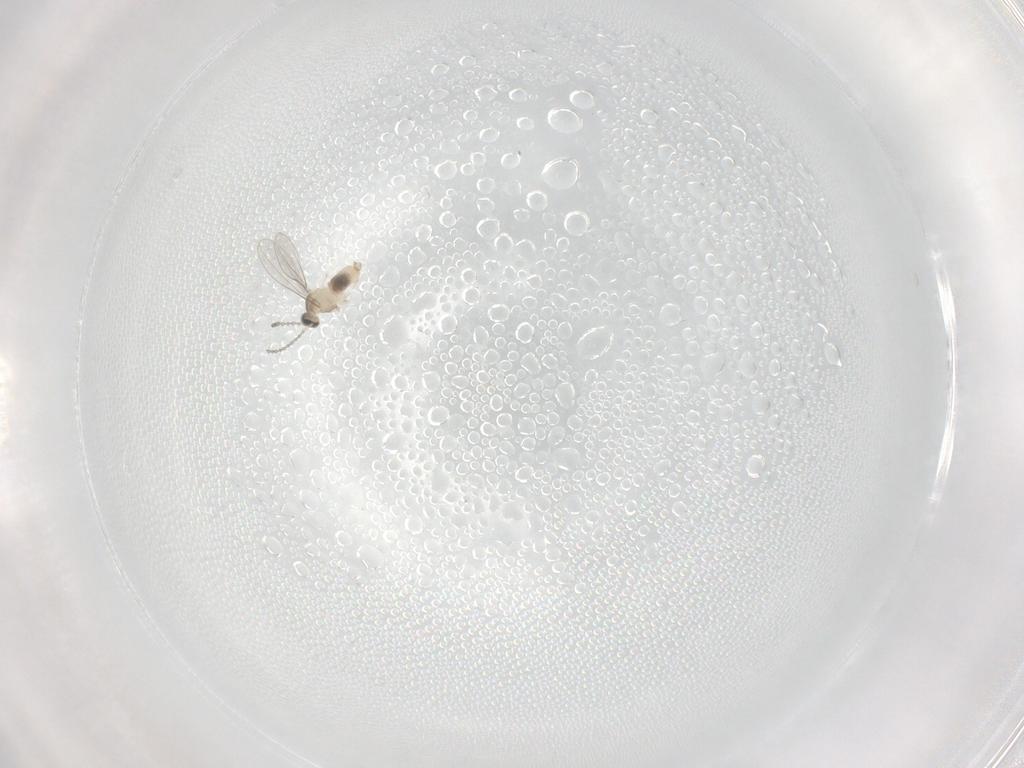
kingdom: Animalia
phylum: Arthropoda
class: Insecta
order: Diptera
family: Cecidomyiidae
